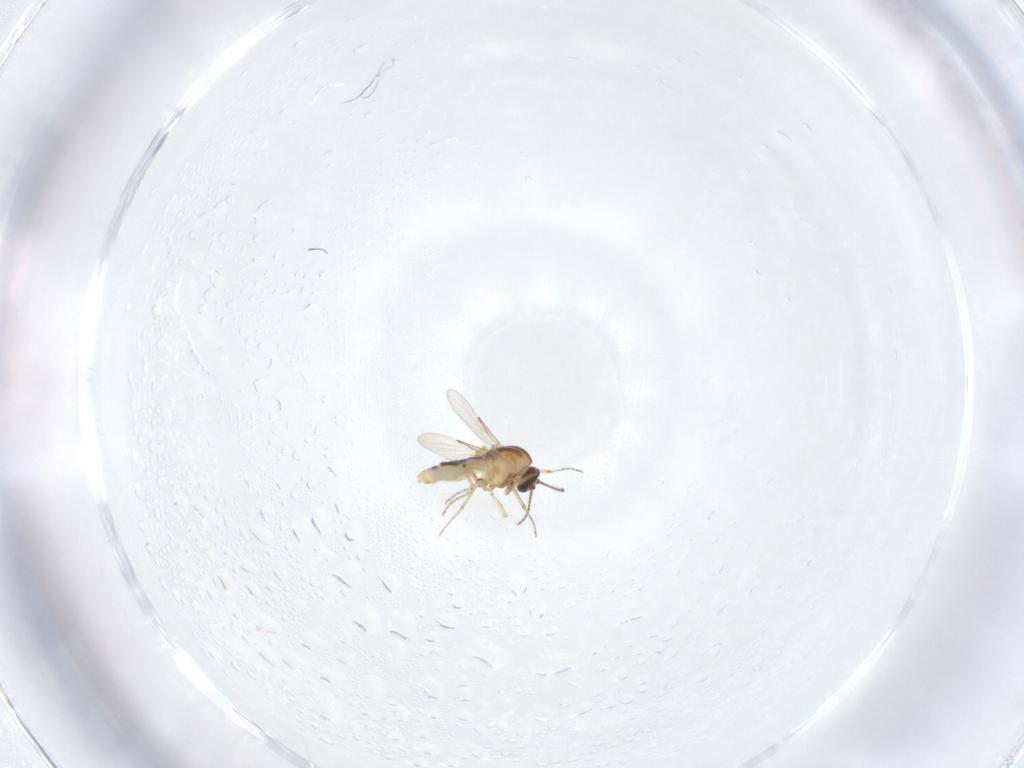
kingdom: Animalia
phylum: Arthropoda
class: Insecta
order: Diptera
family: Ceratopogonidae
